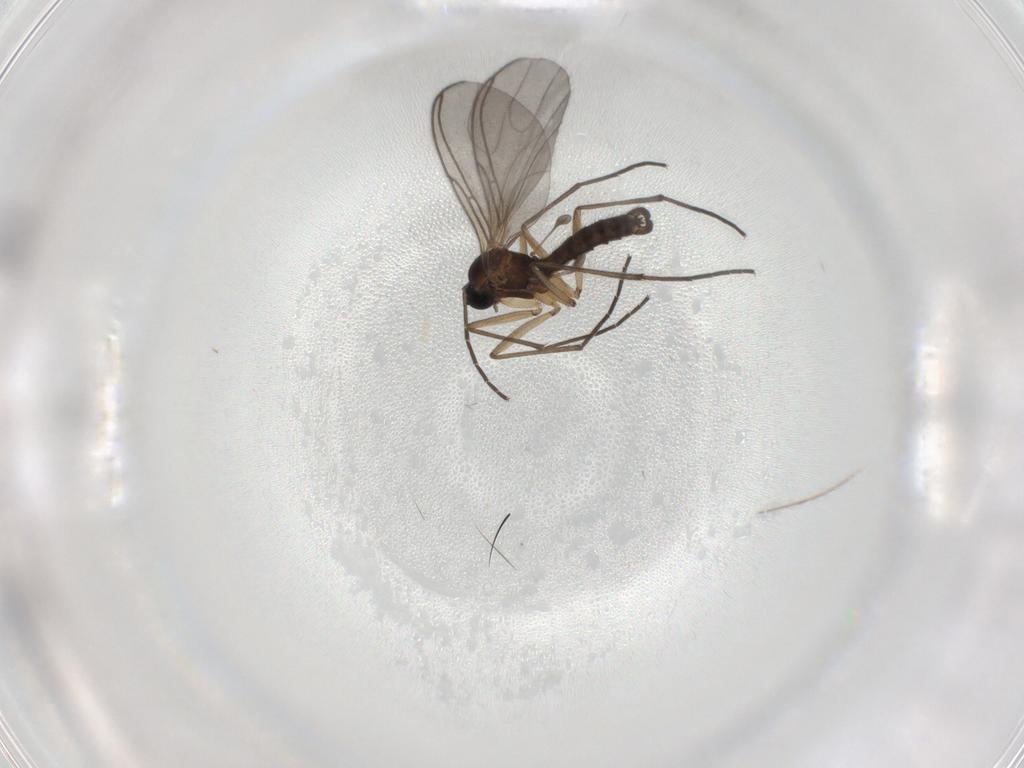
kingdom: Animalia
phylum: Arthropoda
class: Insecta
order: Diptera
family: Sciaridae
